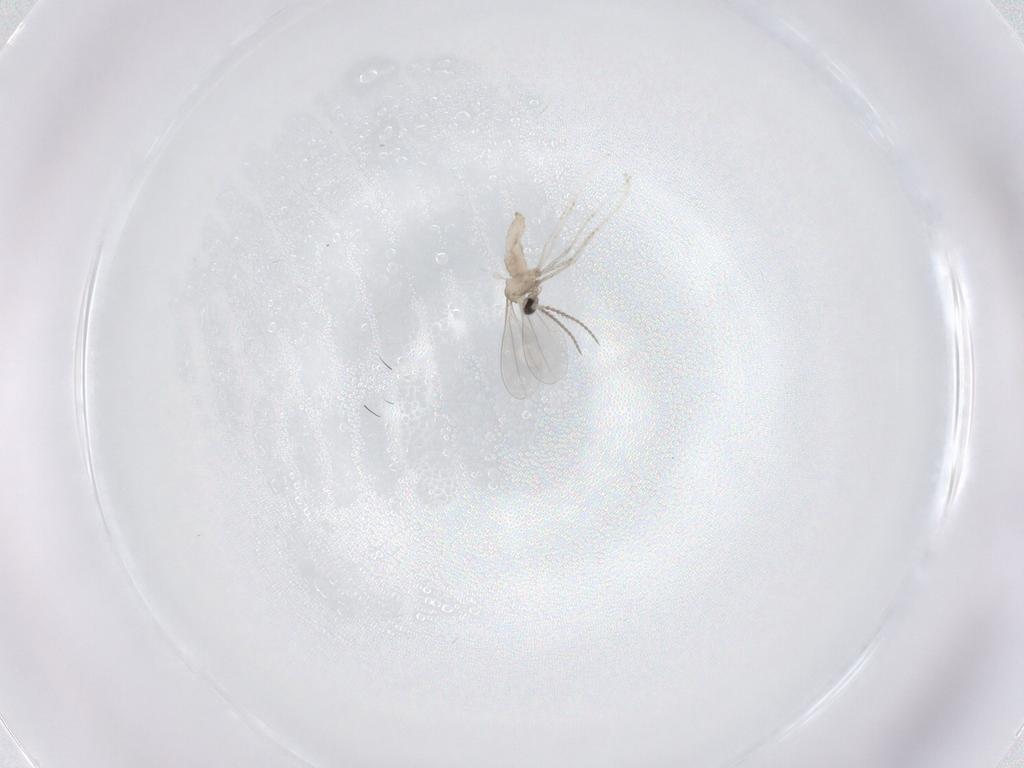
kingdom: Animalia
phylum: Arthropoda
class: Insecta
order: Diptera
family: Cecidomyiidae
